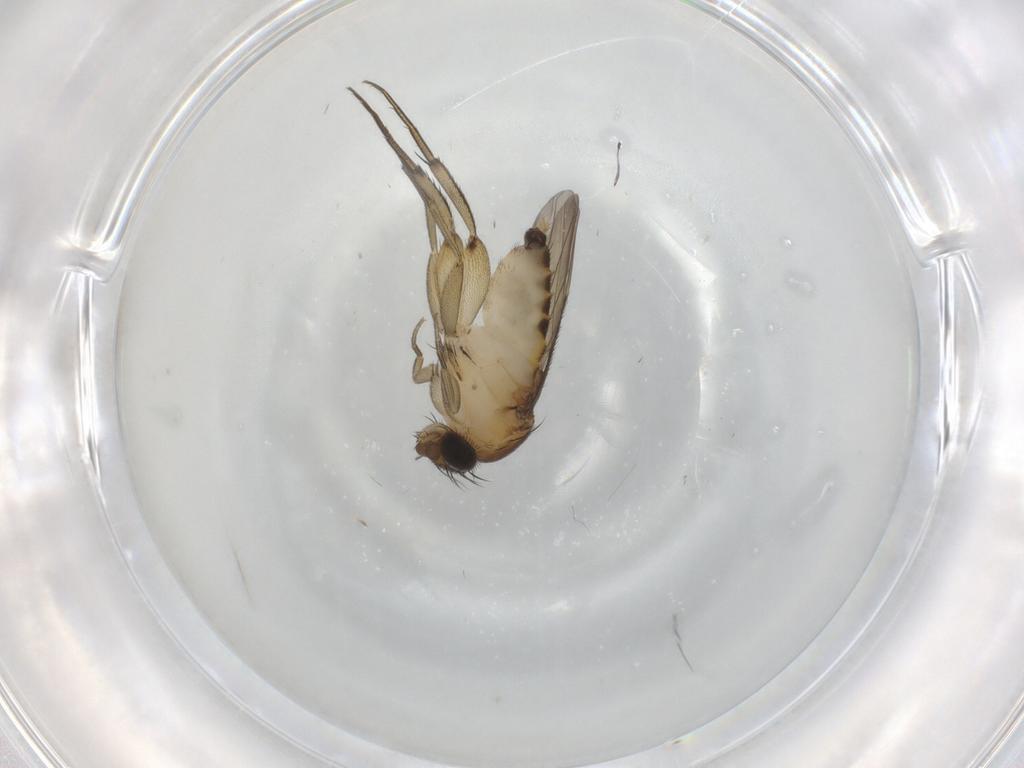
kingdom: Animalia
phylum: Arthropoda
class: Insecta
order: Diptera
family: Phoridae
